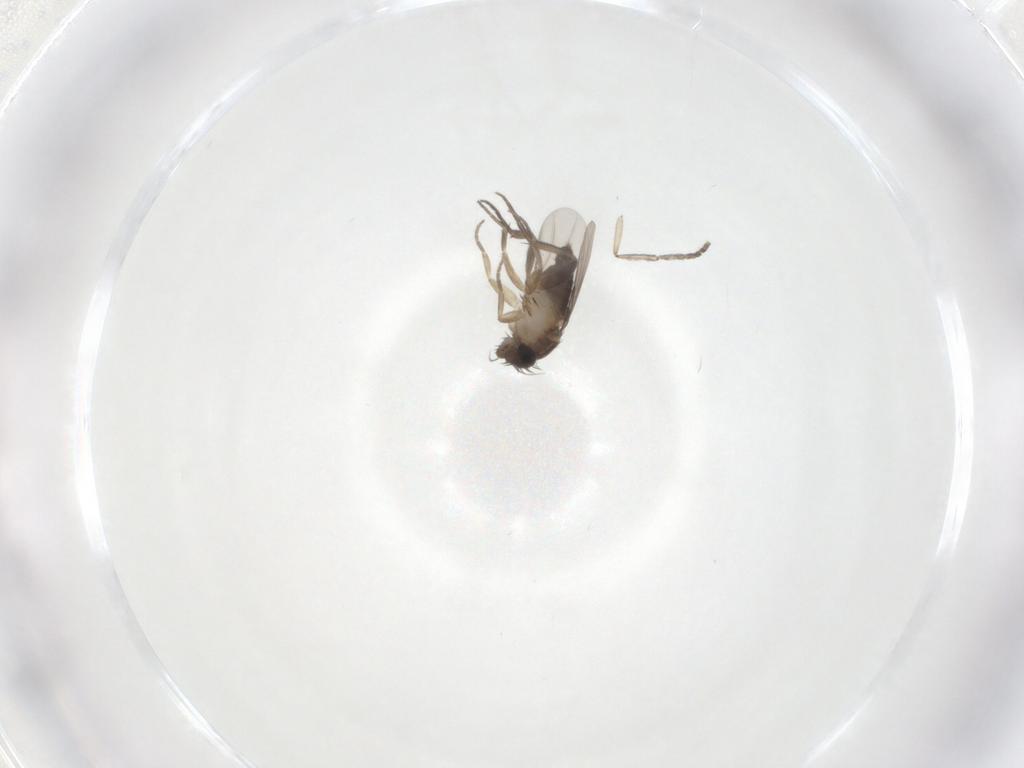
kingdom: Animalia
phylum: Arthropoda
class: Insecta
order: Diptera
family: Phoridae
